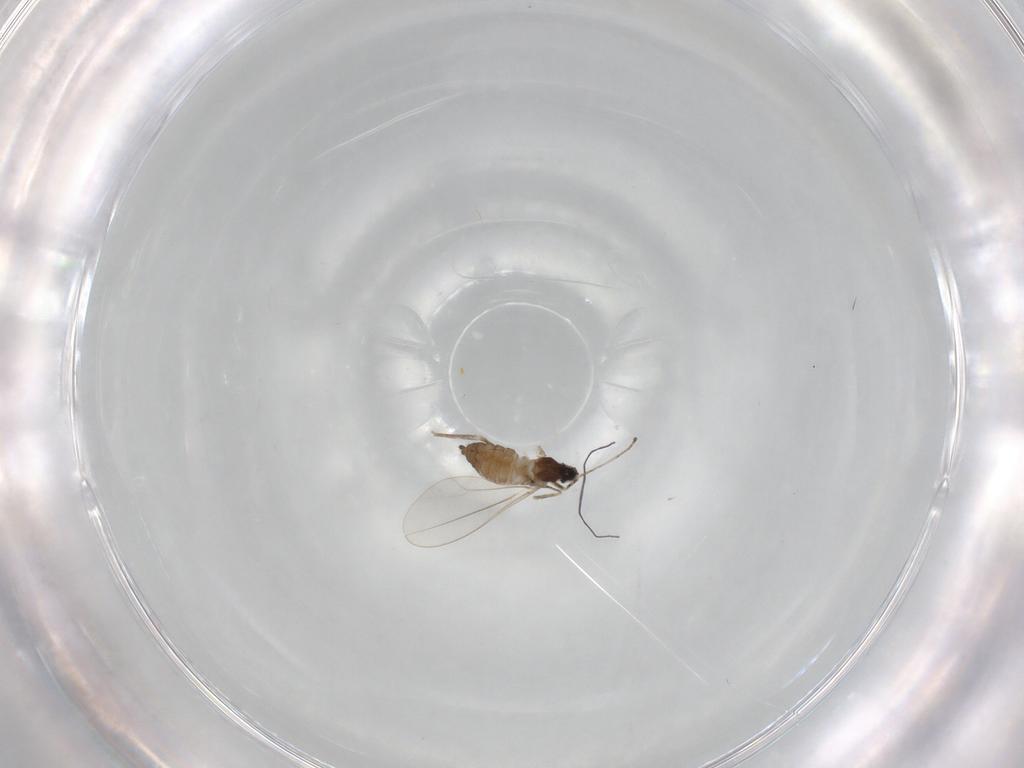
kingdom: Animalia
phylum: Arthropoda
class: Insecta
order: Diptera
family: Cecidomyiidae
